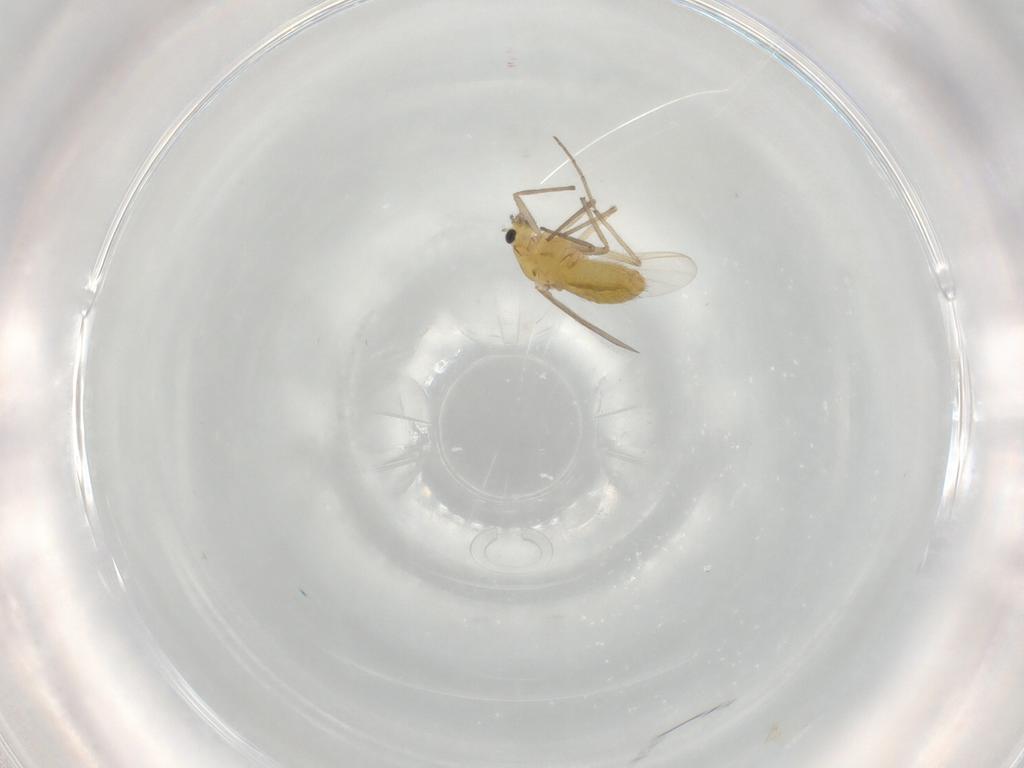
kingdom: Animalia
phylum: Arthropoda
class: Insecta
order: Diptera
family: Chironomidae
